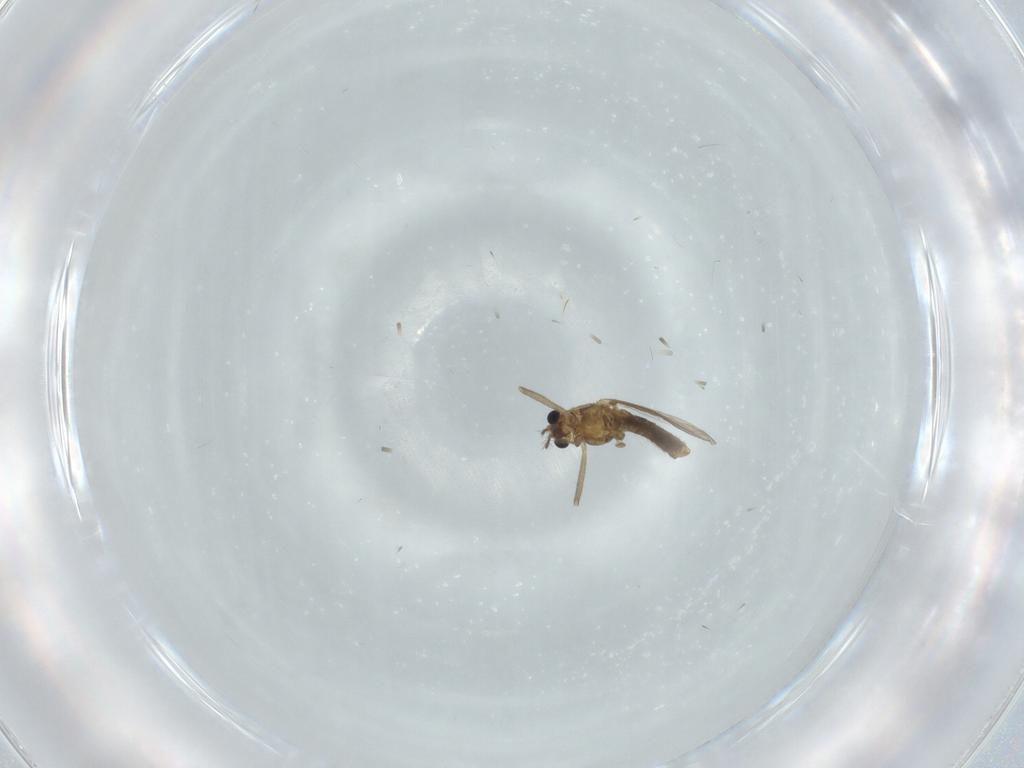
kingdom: Animalia
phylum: Arthropoda
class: Insecta
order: Diptera
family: Chironomidae
